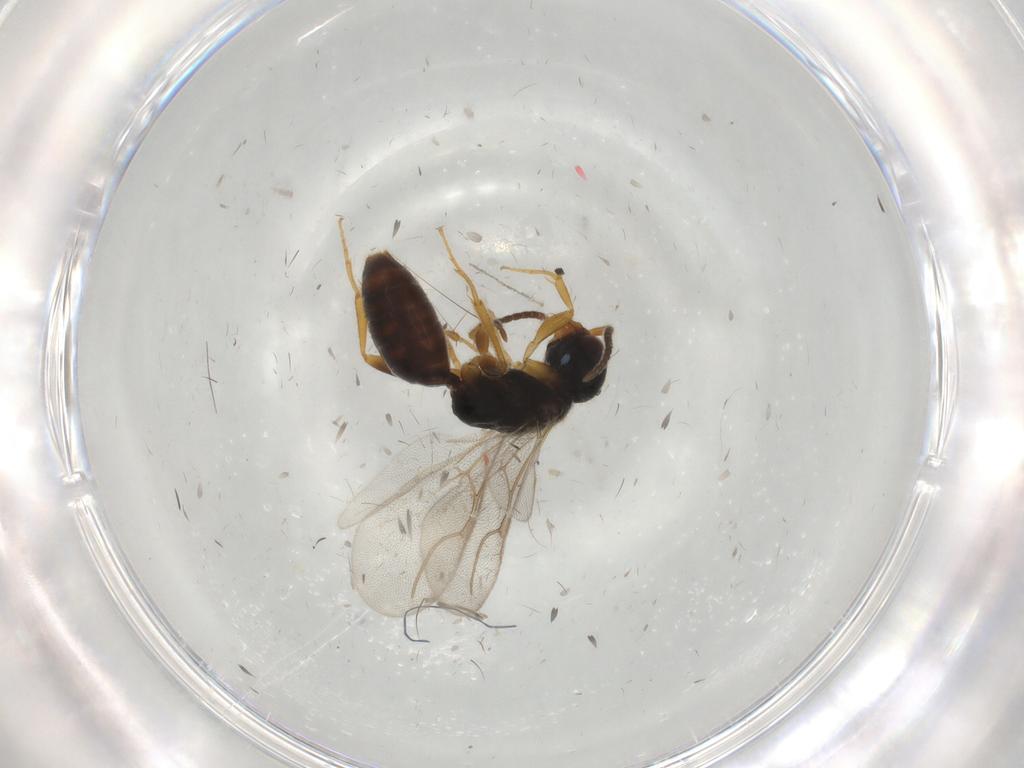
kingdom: Animalia
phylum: Arthropoda
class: Insecta
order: Hymenoptera
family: Bethylidae
